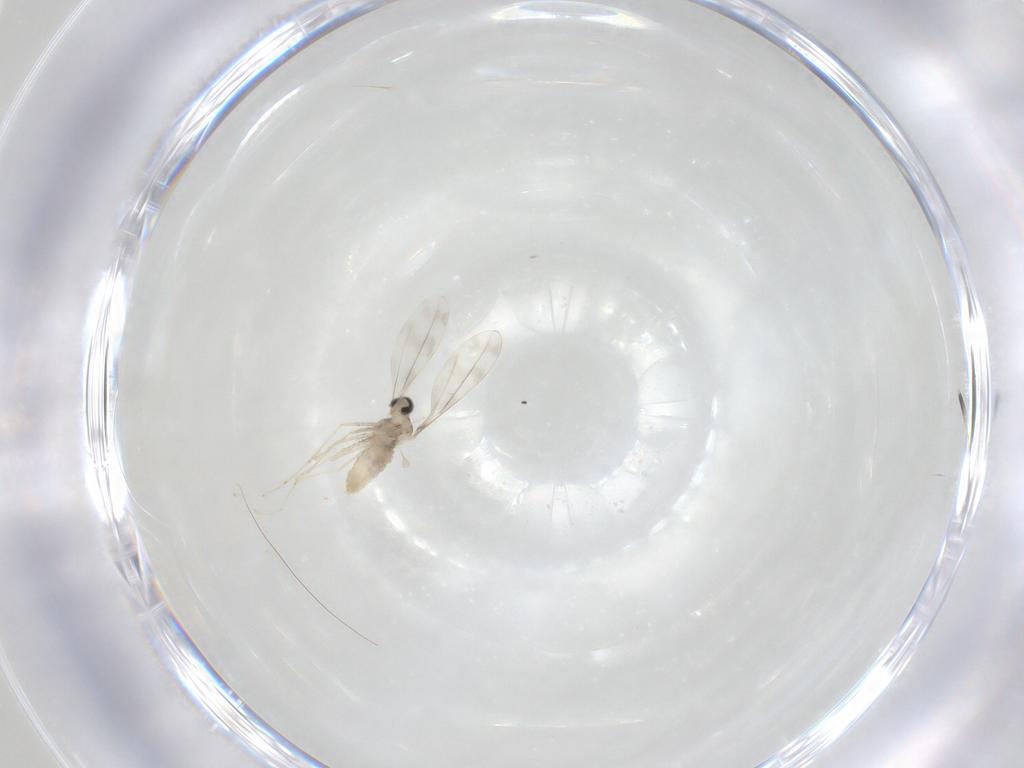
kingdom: Animalia
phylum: Arthropoda
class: Insecta
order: Diptera
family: Cecidomyiidae
